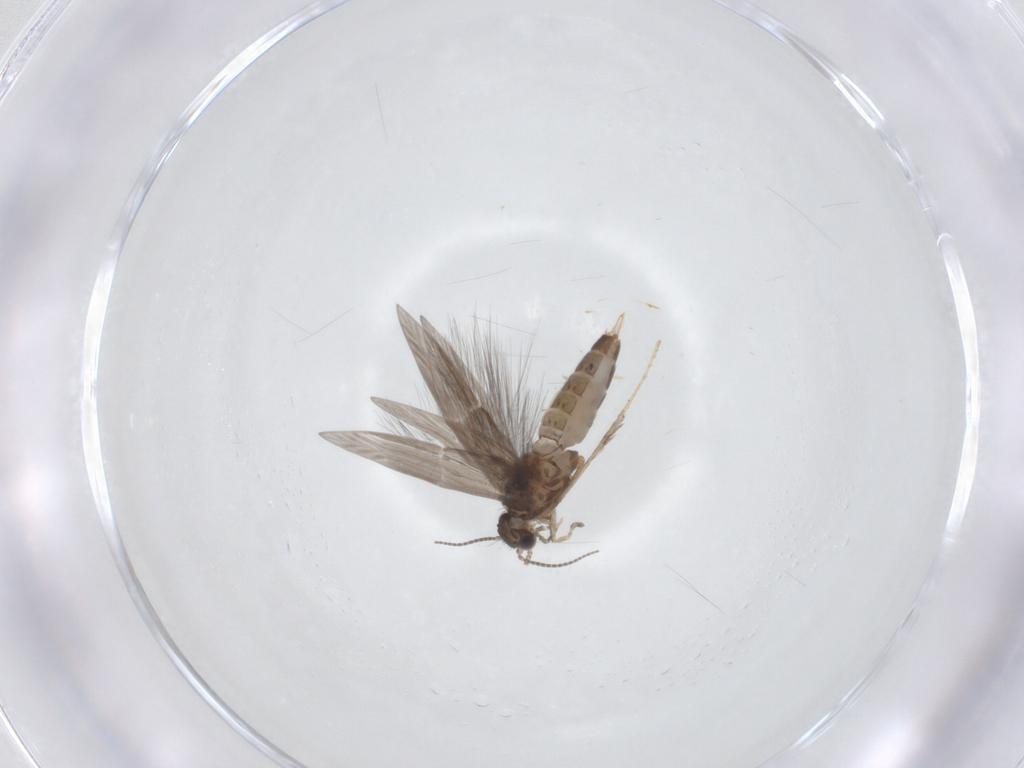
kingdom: Animalia
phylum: Arthropoda
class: Insecta
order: Trichoptera
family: Hydroptilidae
